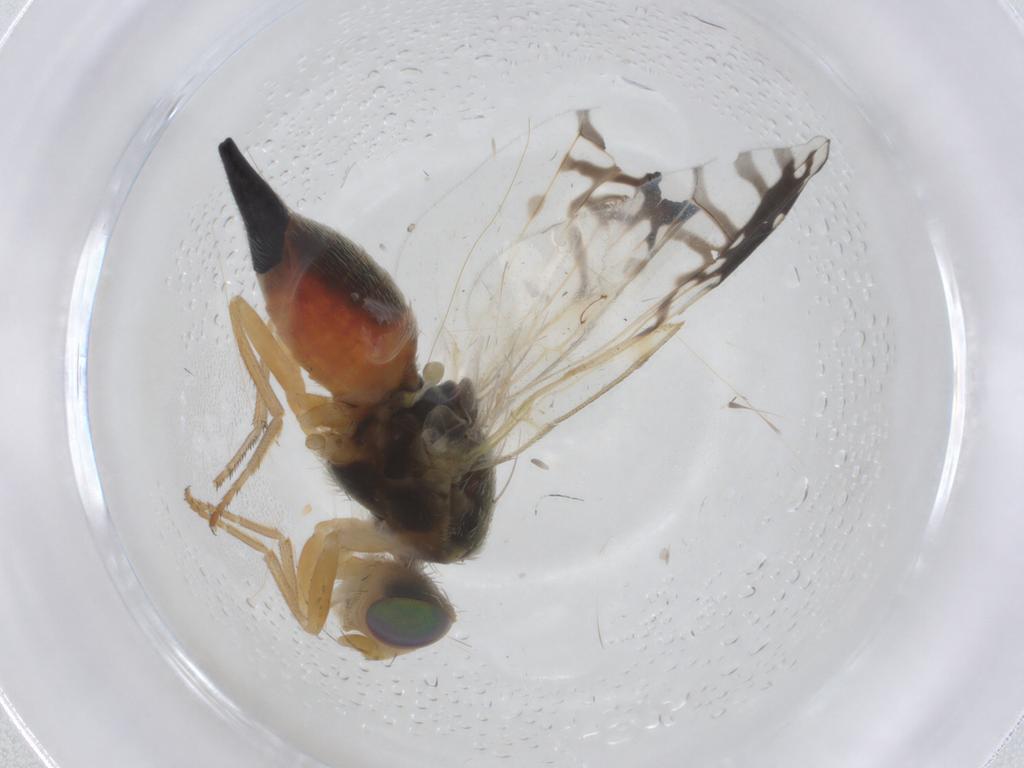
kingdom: Animalia
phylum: Arthropoda
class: Insecta
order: Diptera
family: Tephritidae
